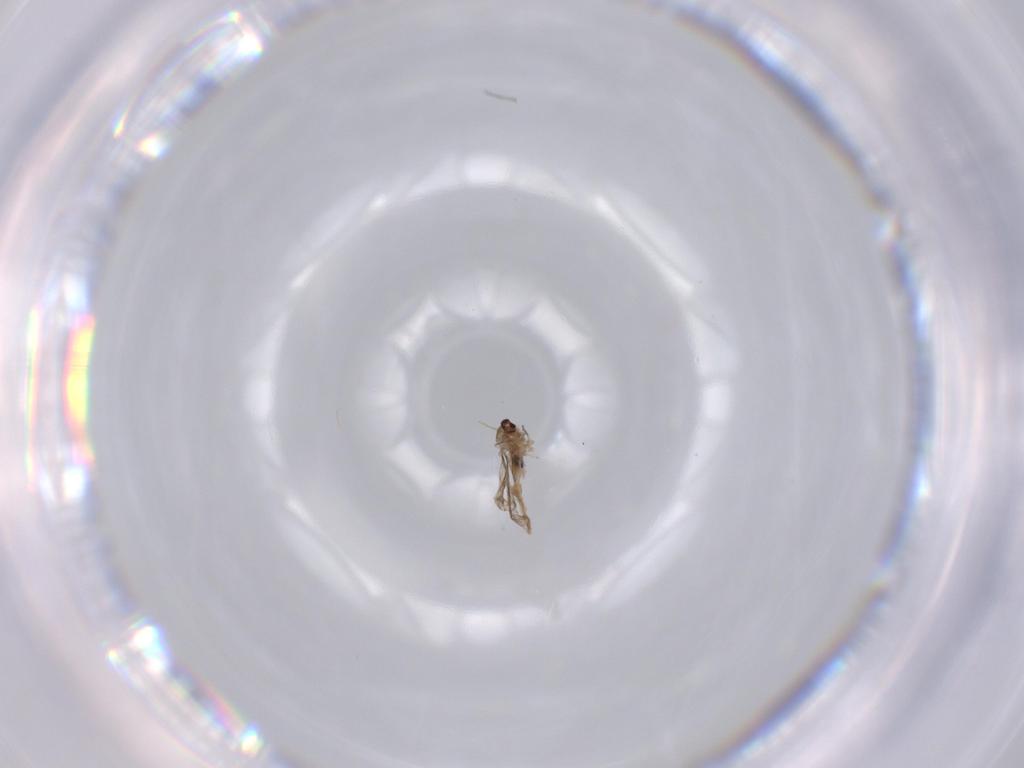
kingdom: Animalia
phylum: Arthropoda
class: Insecta
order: Diptera
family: Cecidomyiidae
